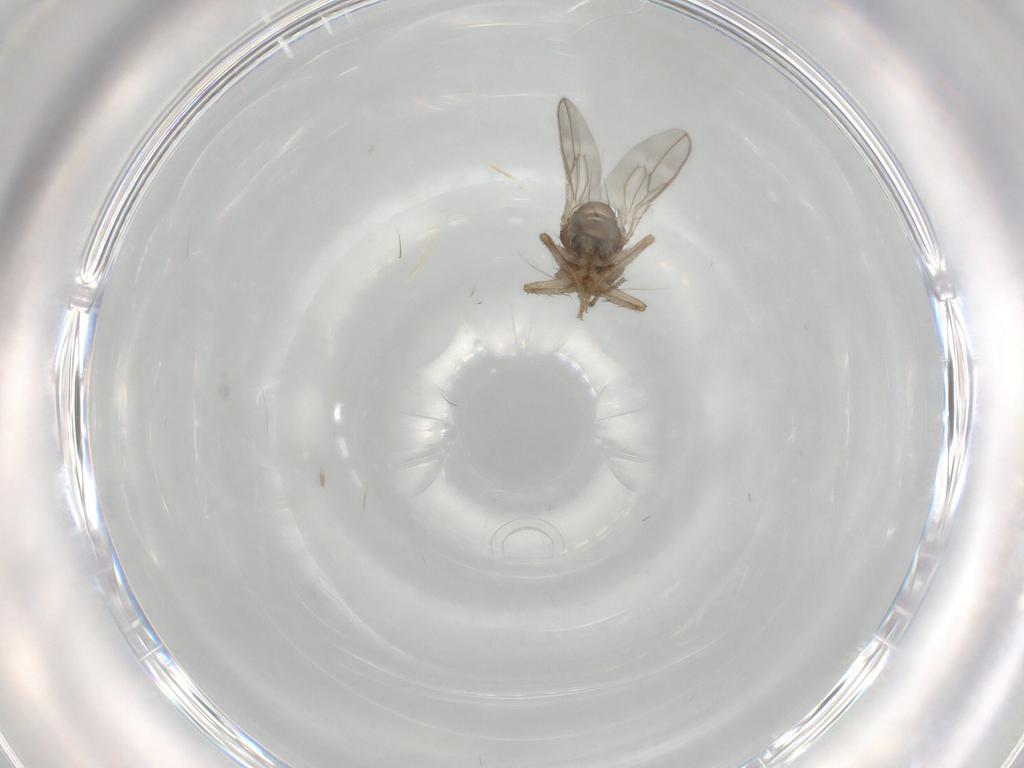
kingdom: Animalia
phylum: Arthropoda
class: Insecta
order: Diptera
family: Sphaeroceridae
